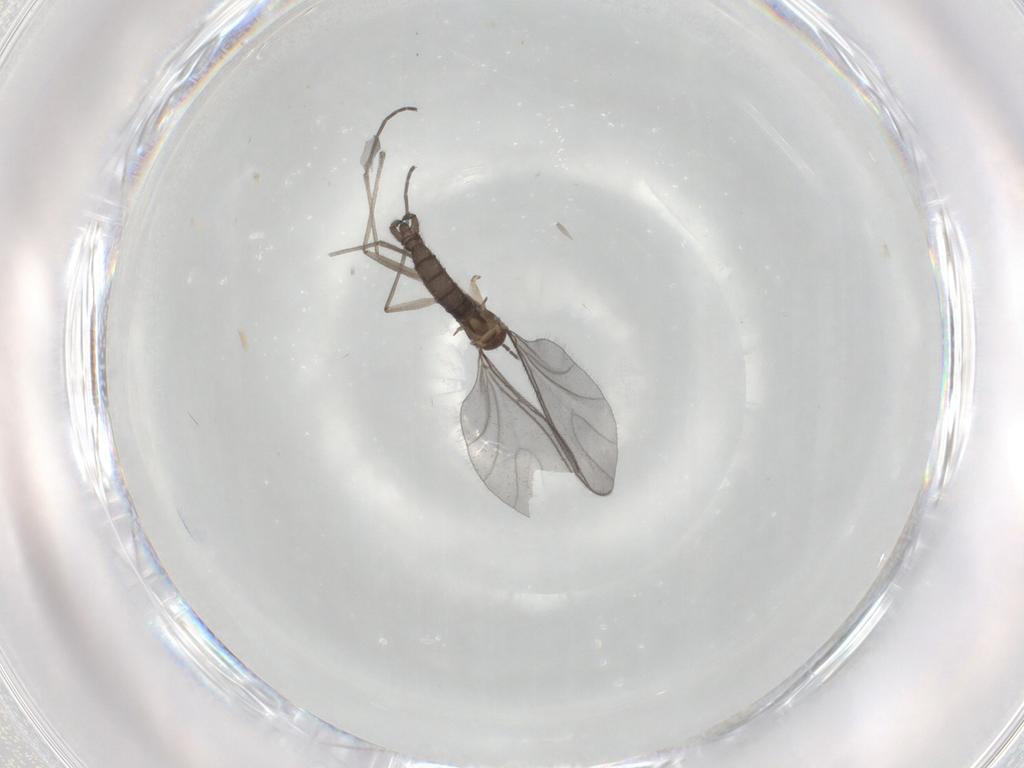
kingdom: Animalia
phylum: Arthropoda
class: Insecta
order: Diptera
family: Sciaridae
